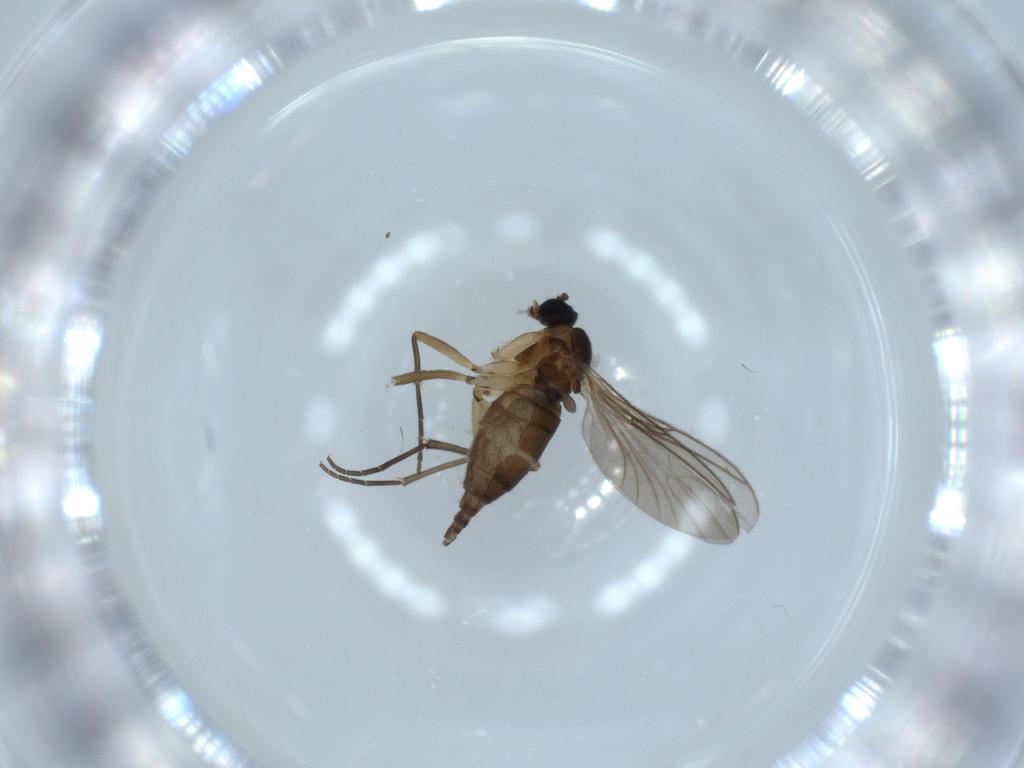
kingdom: Animalia
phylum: Arthropoda
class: Insecta
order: Diptera
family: Sciaridae
